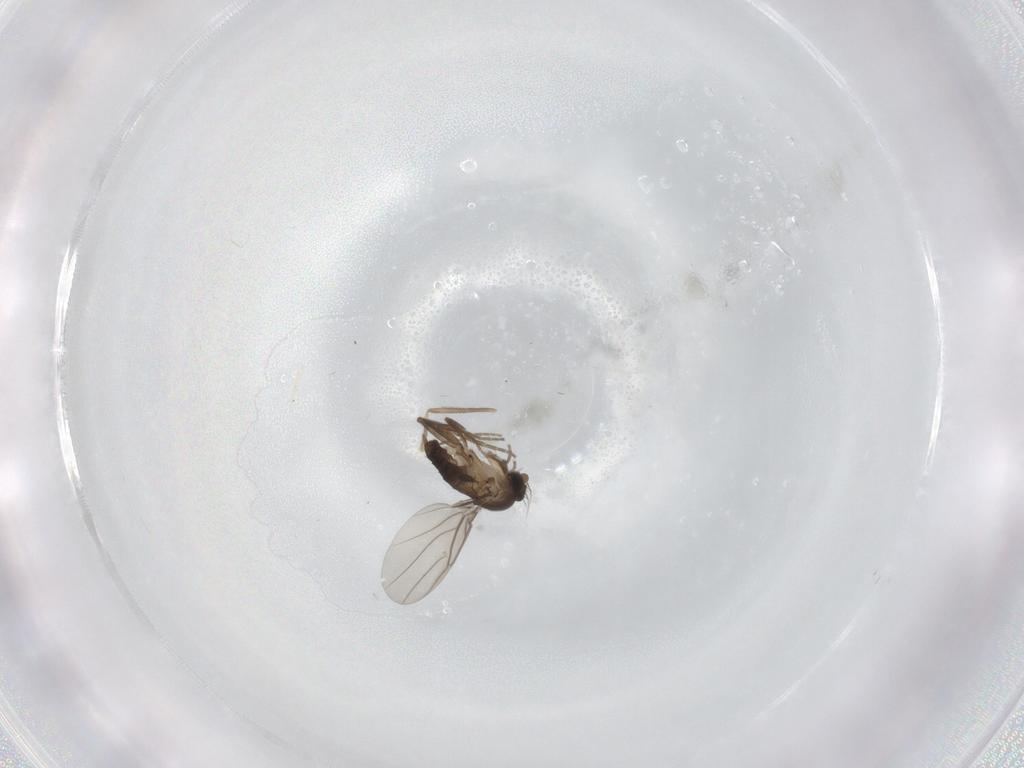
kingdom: Animalia
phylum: Arthropoda
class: Insecta
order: Diptera
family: Chironomidae
